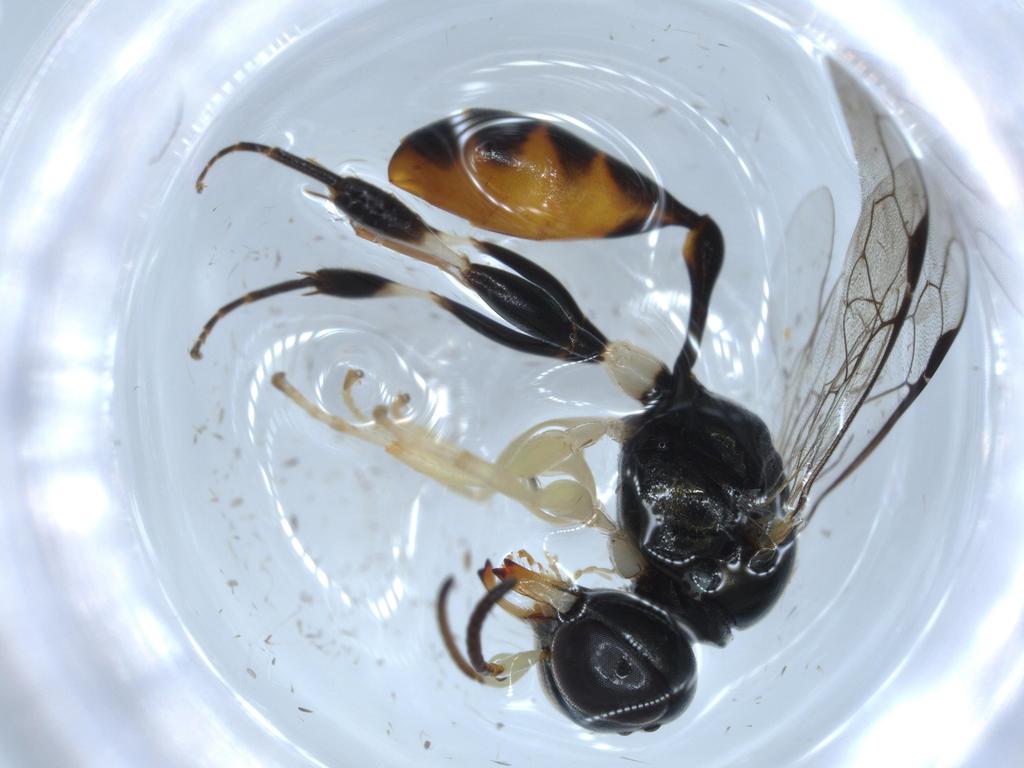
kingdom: Animalia
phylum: Arthropoda
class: Insecta
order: Hymenoptera
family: Crabronidae
